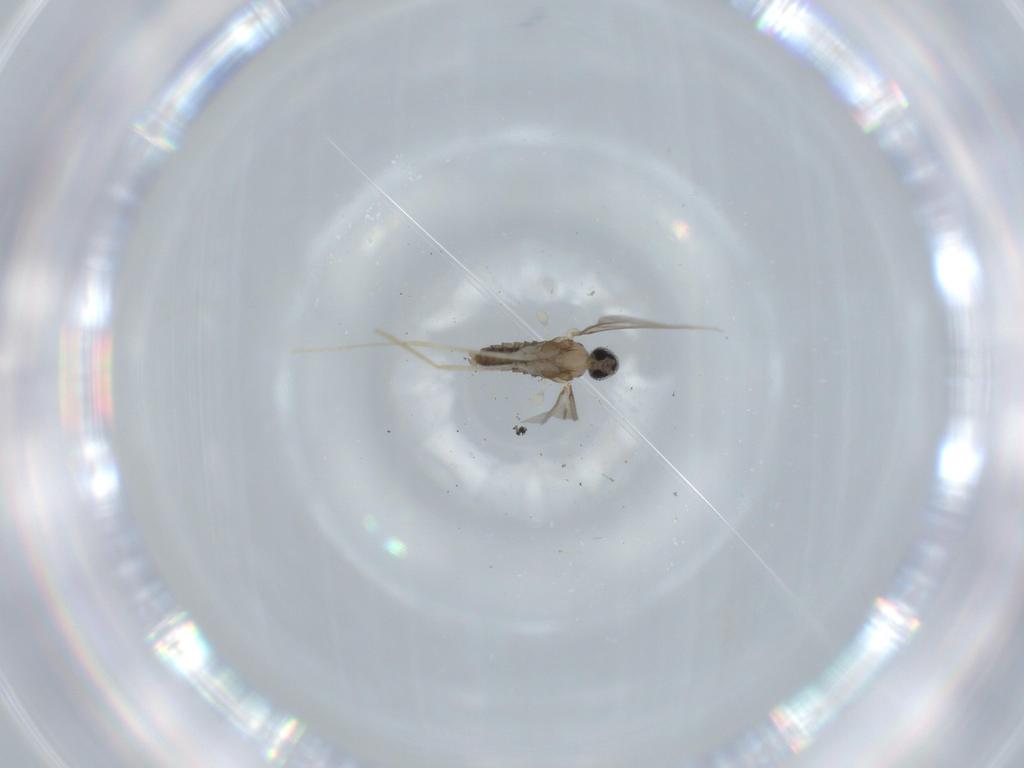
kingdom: Animalia
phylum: Arthropoda
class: Insecta
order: Diptera
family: Cecidomyiidae
